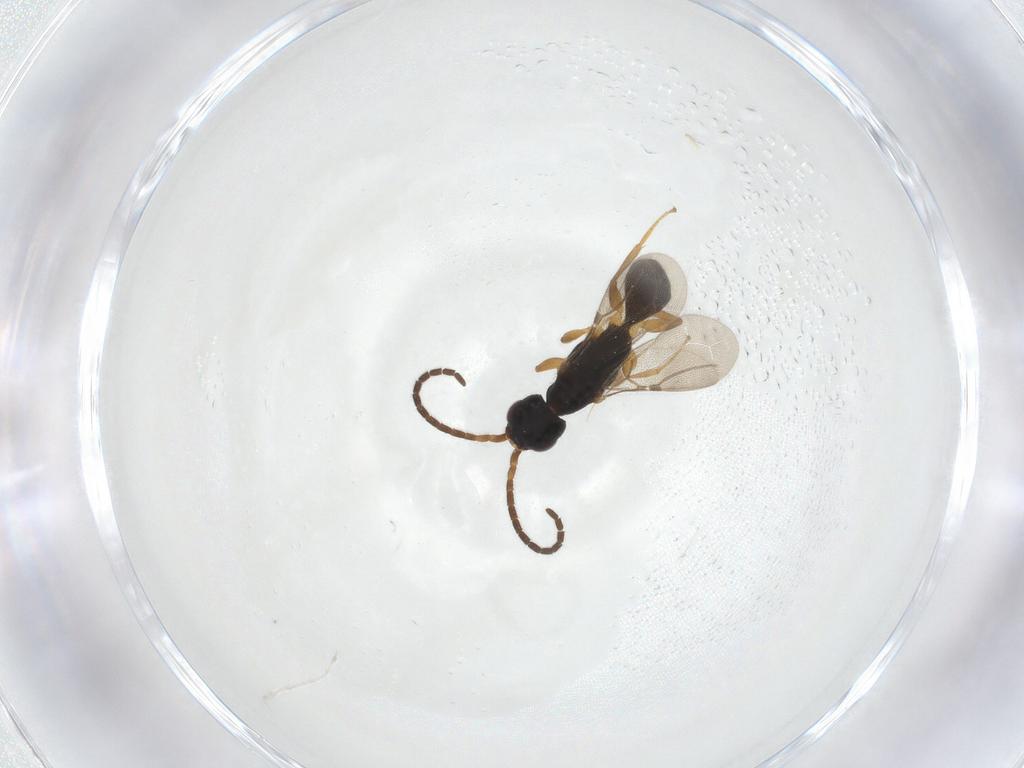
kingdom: Animalia
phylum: Arthropoda
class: Insecta
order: Hymenoptera
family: Bethylidae
